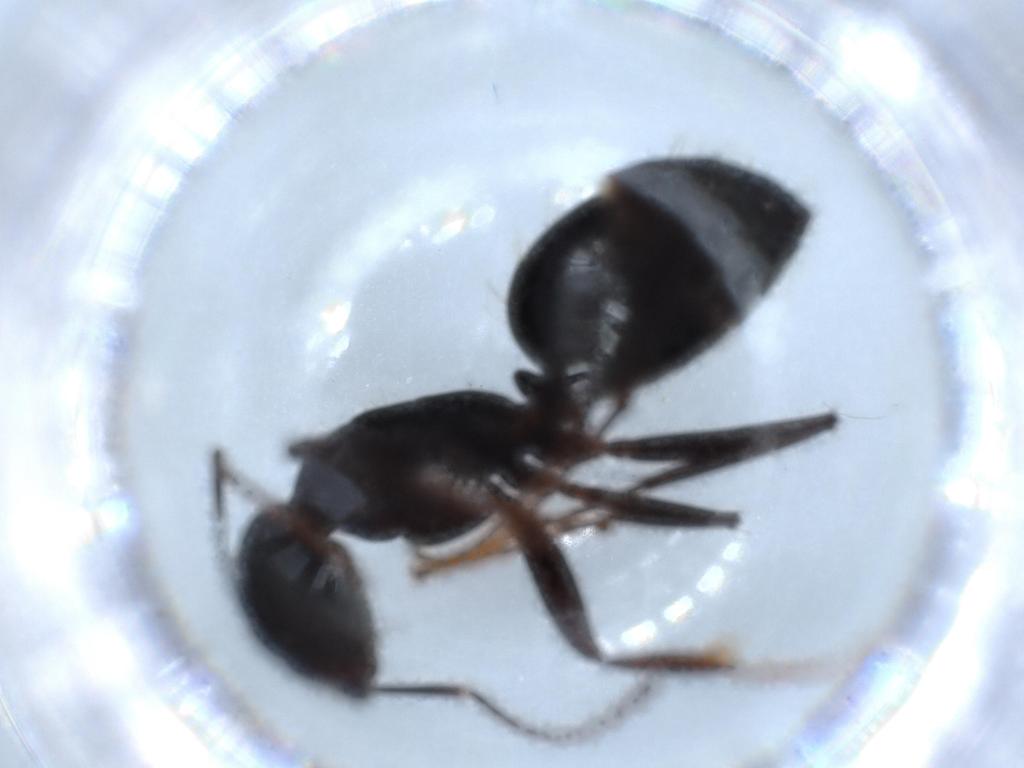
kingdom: Animalia
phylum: Arthropoda
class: Insecta
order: Hymenoptera
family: Formicidae
